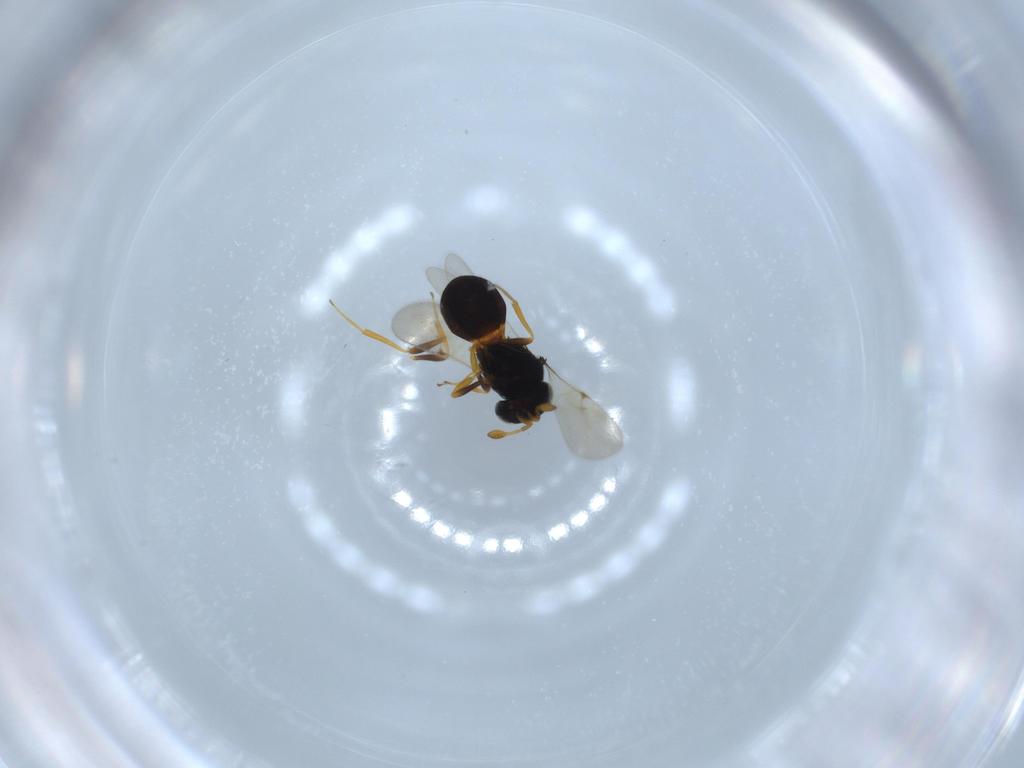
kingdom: Animalia
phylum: Arthropoda
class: Insecta
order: Hymenoptera
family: Scelionidae
